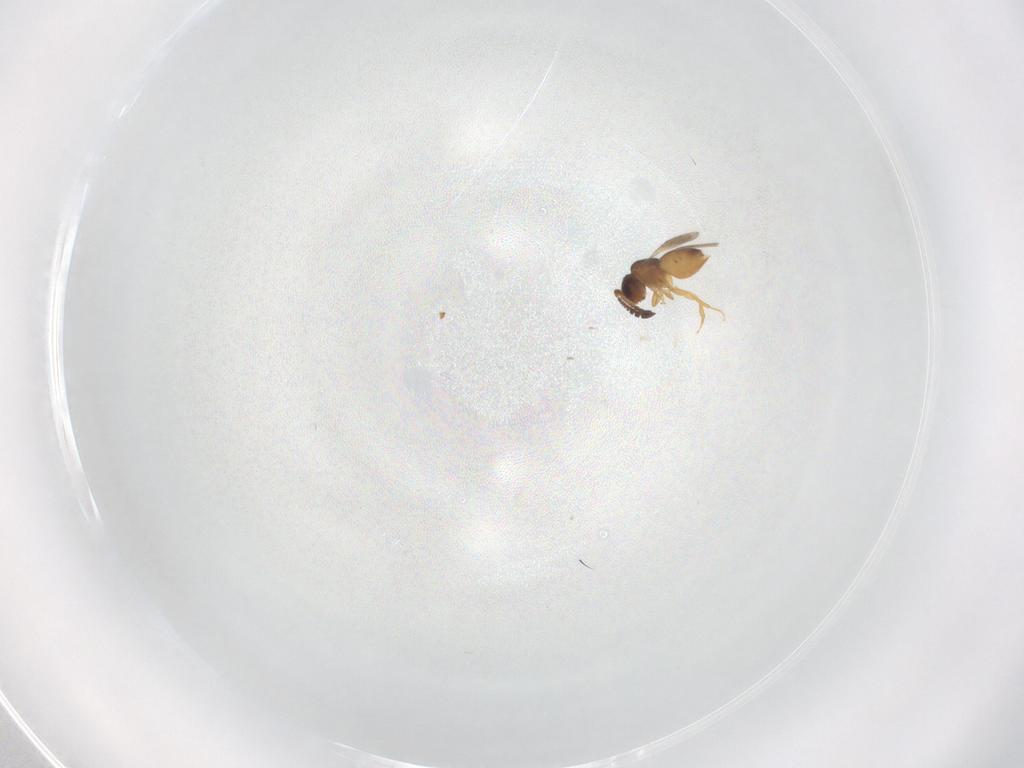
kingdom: Animalia
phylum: Arthropoda
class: Insecta
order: Hymenoptera
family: Ceraphronidae
